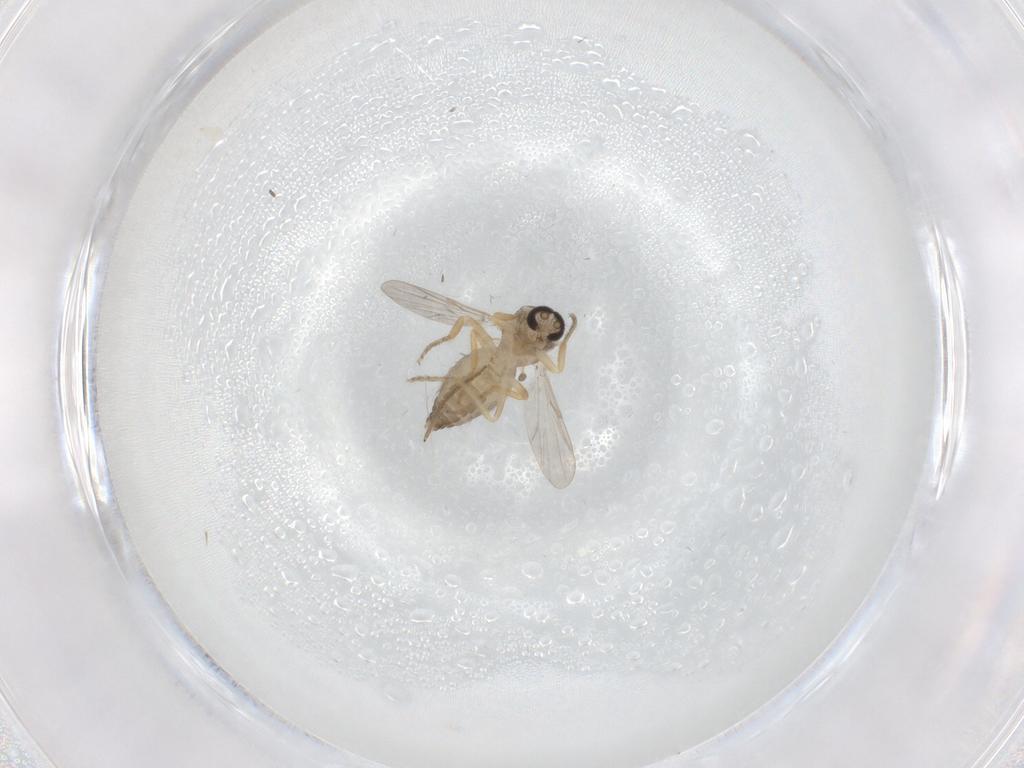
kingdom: Animalia
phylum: Arthropoda
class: Insecta
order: Diptera
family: Ceratopogonidae
